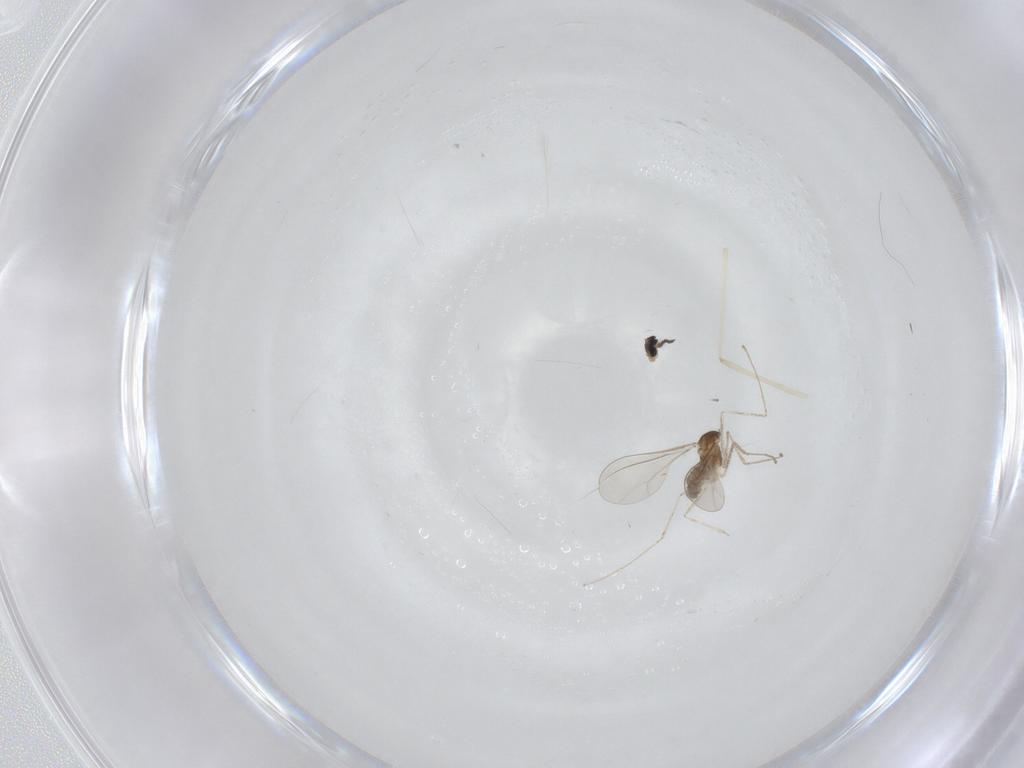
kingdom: Animalia
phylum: Arthropoda
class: Insecta
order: Diptera
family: Cecidomyiidae
